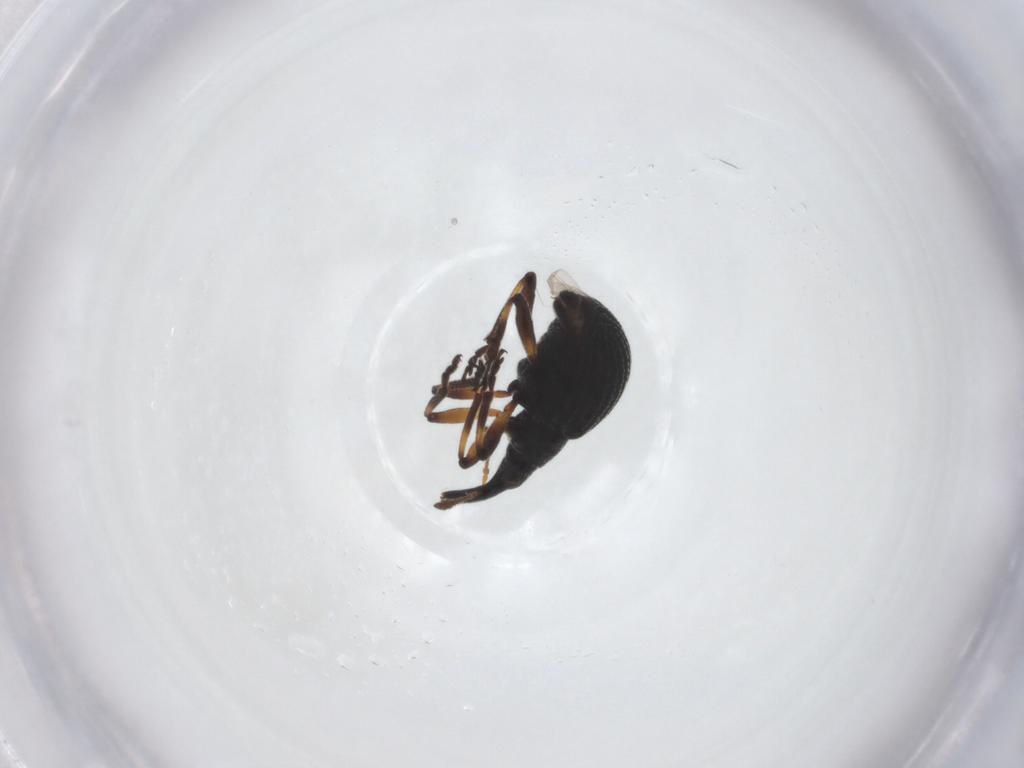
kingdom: Animalia
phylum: Arthropoda
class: Insecta
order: Coleoptera
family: Brentidae
